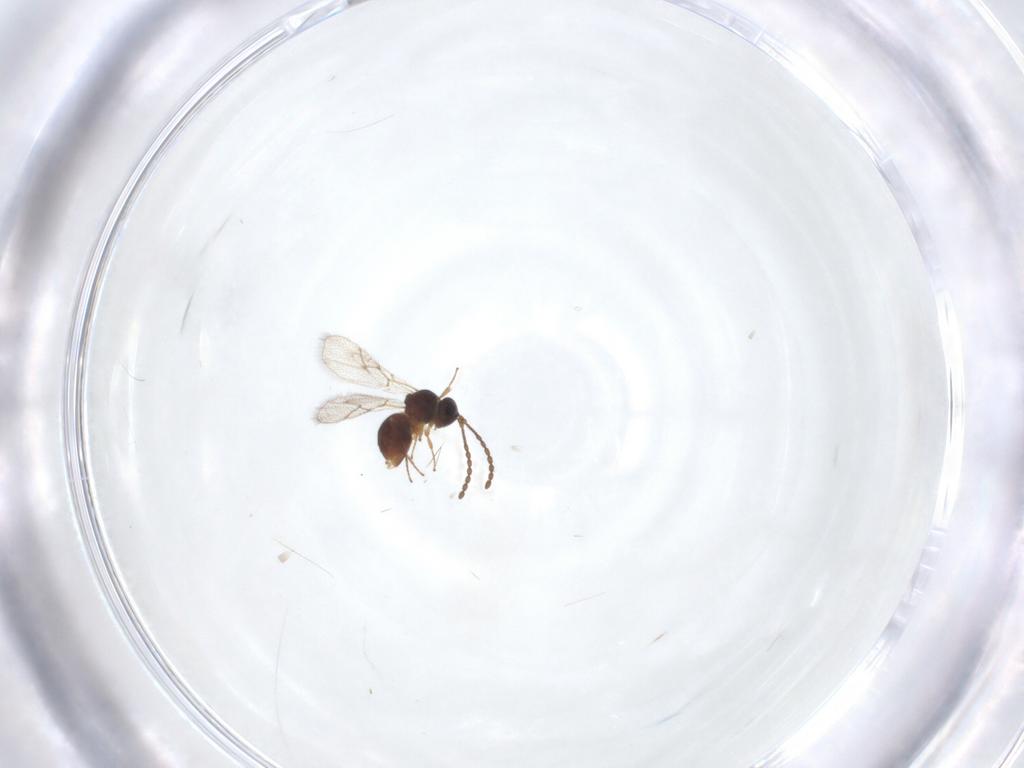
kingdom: Animalia
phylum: Arthropoda
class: Insecta
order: Hymenoptera
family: Figitidae
